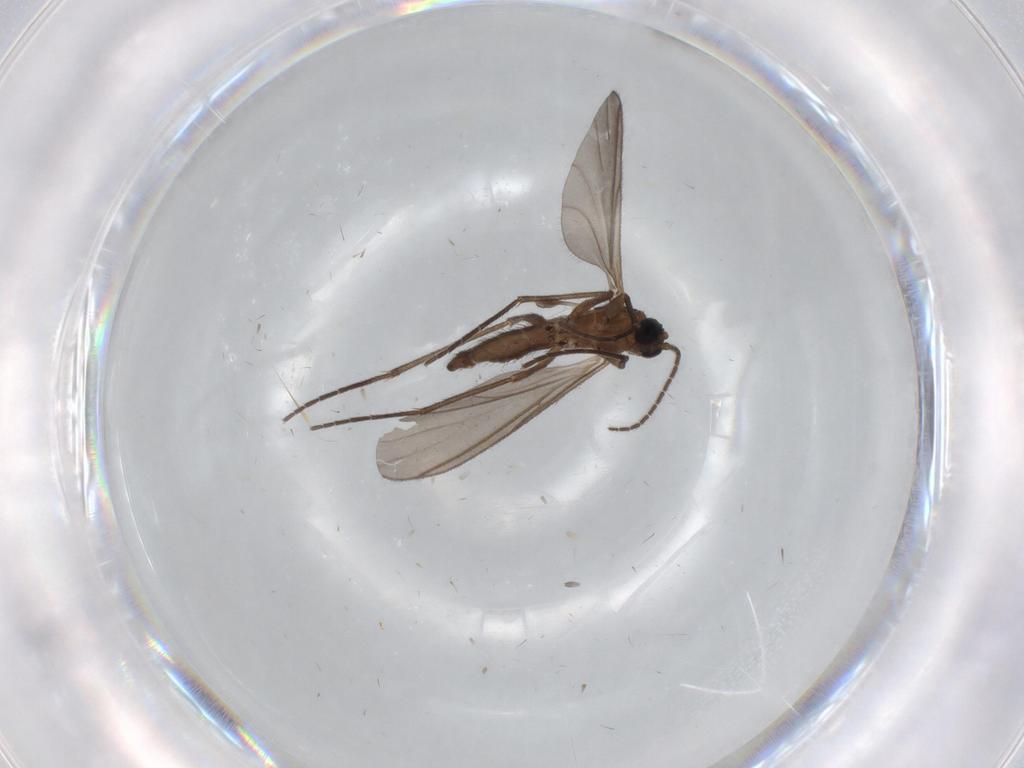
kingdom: Animalia
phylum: Arthropoda
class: Insecta
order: Diptera
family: Sciaridae
